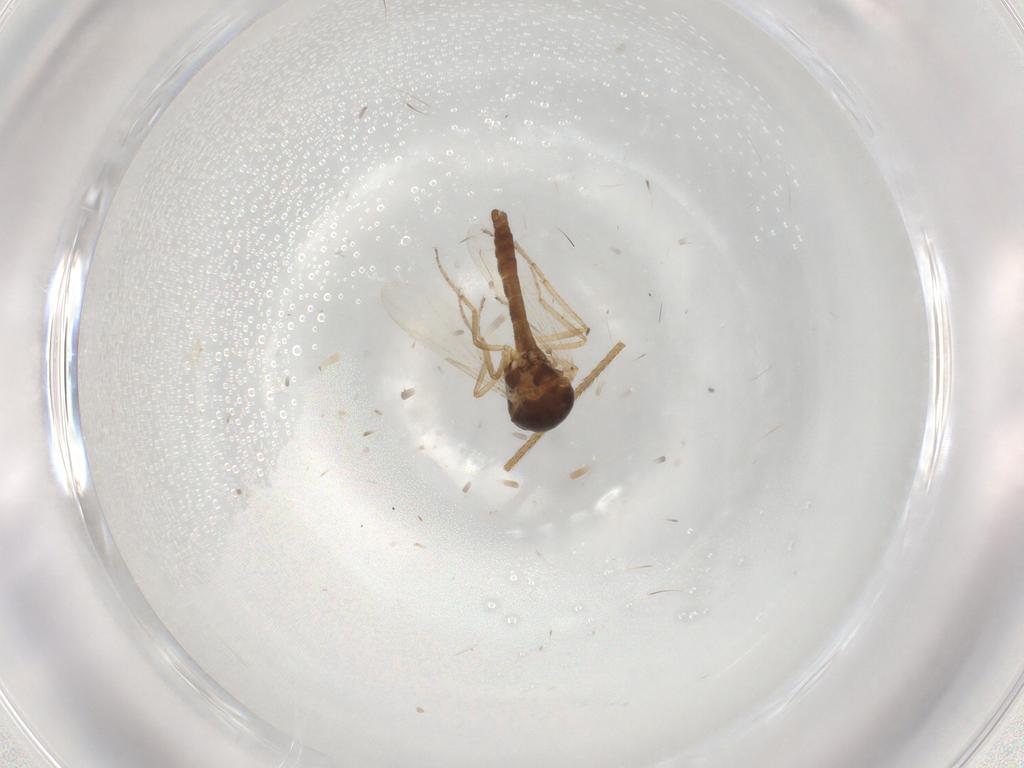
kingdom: Animalia
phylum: Arthropoda
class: Insecta
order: Diptera
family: Ceratopogonidae
